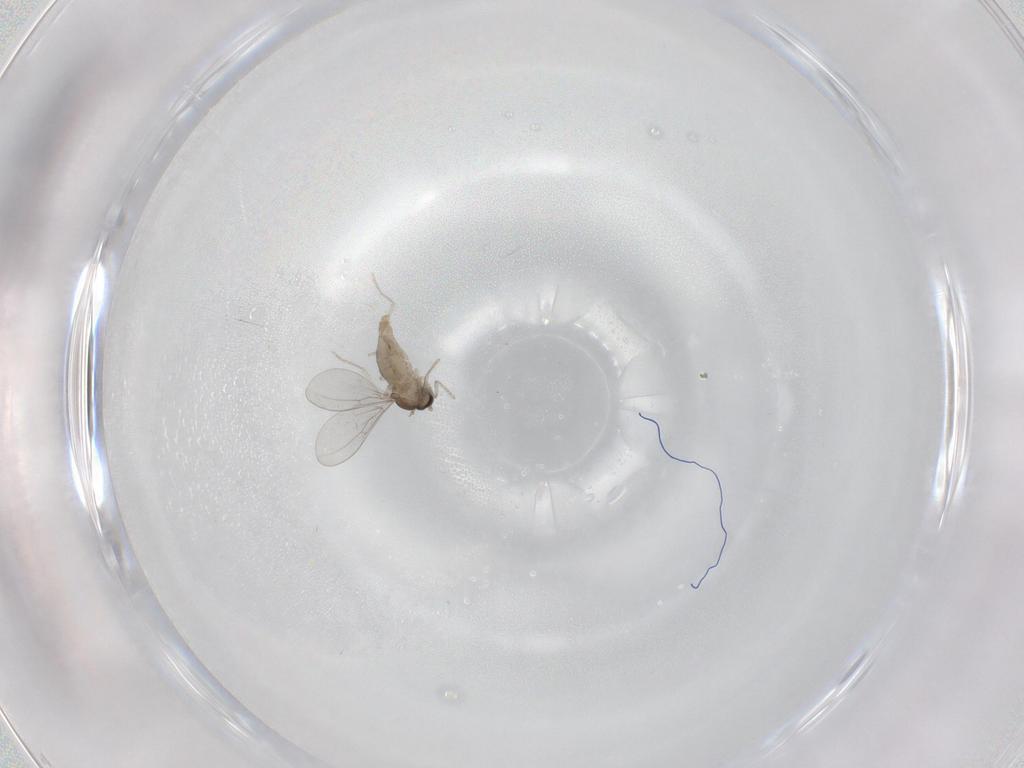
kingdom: Animalia
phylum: Arthropoda
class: Insecta
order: Diptera
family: Cecidomyiidae
